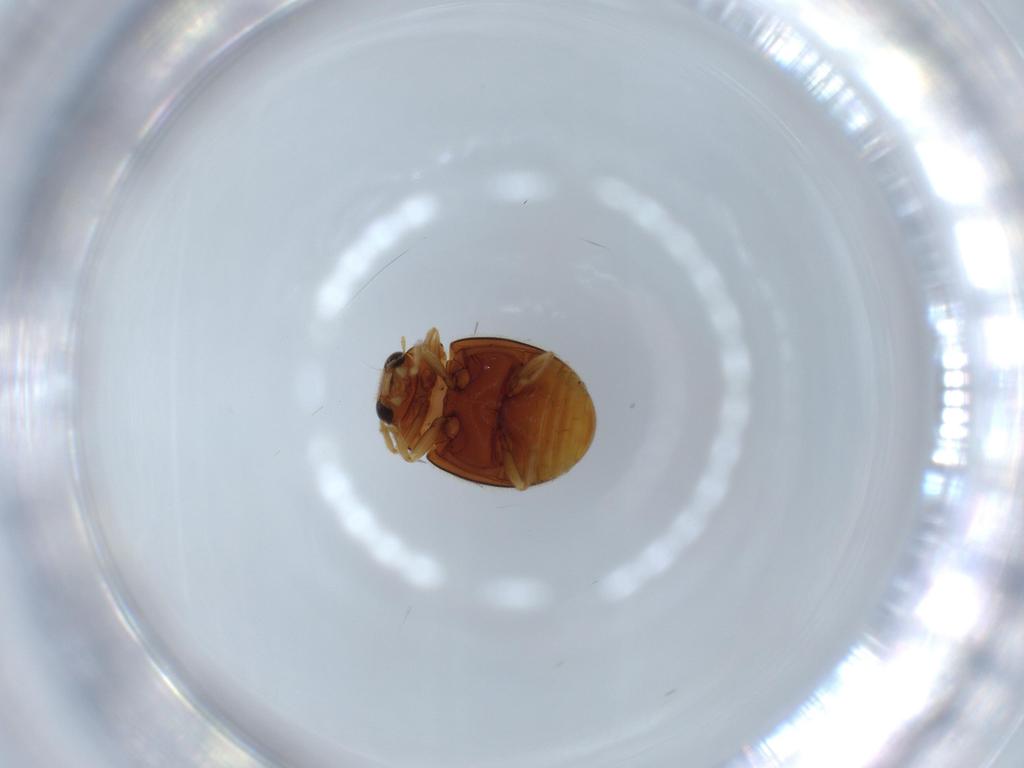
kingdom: Animalia
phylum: Arthropoda
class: Insecta
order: Coleoptera
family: Coccinellidae
